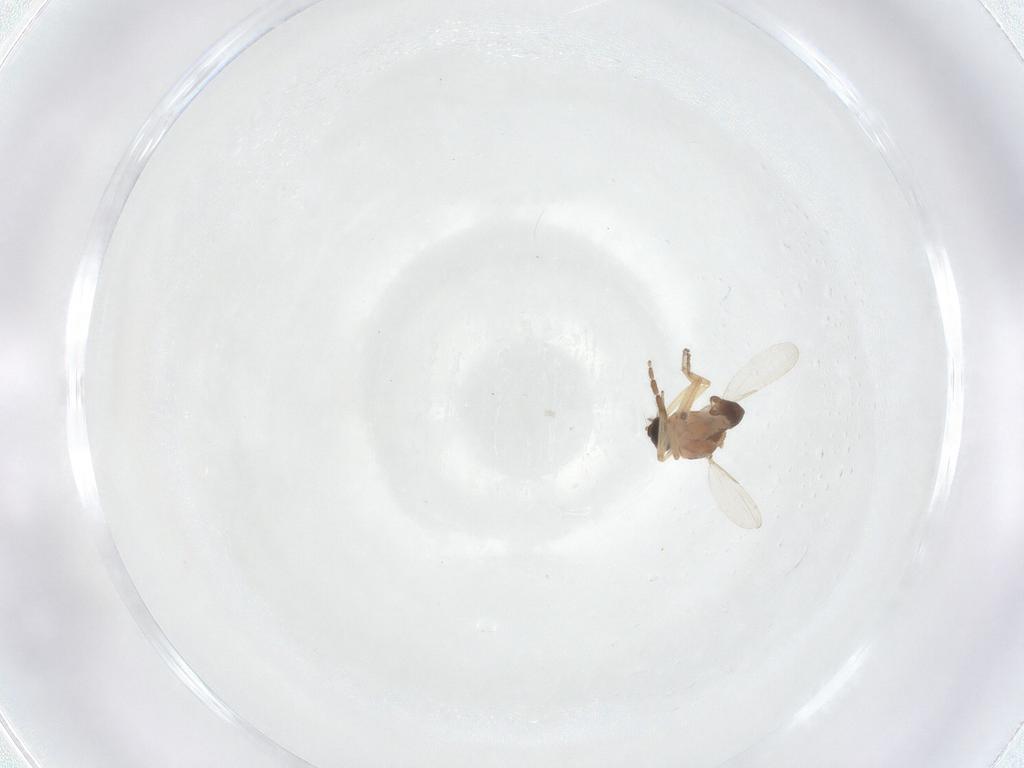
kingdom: Animalia
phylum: Arthropoda
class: Insecta
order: Diptera
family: Ceratopogonidae
